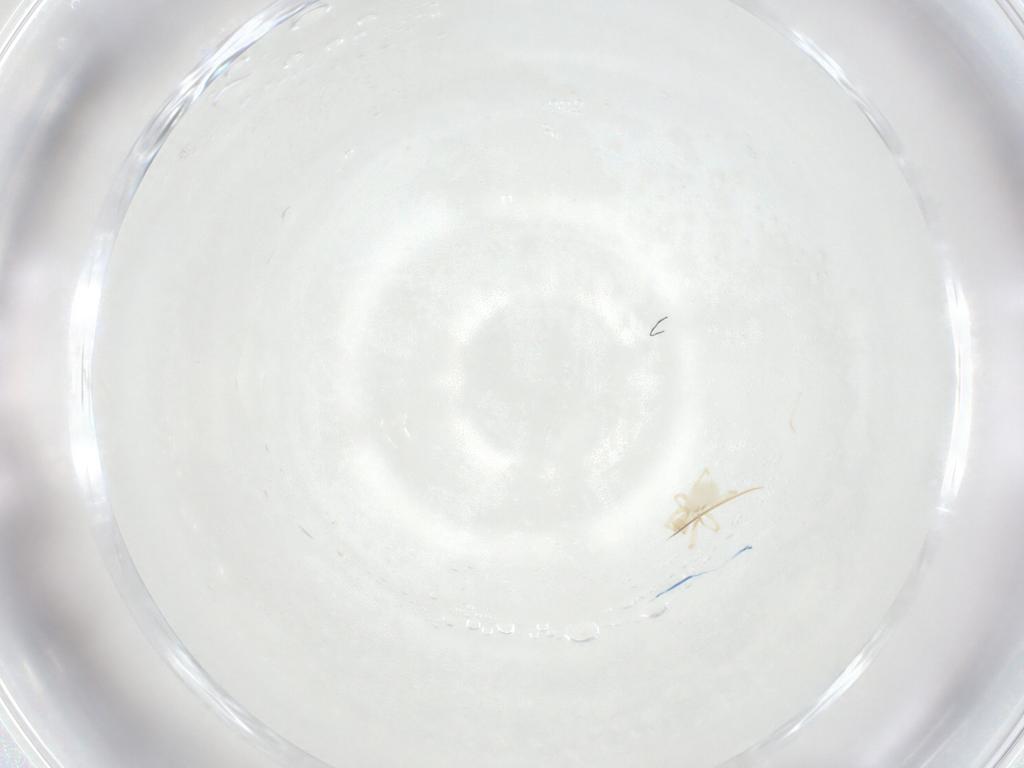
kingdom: Animalia
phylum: Arthropoda
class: Arachnida
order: Trombidiformes
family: Erythraeidae
